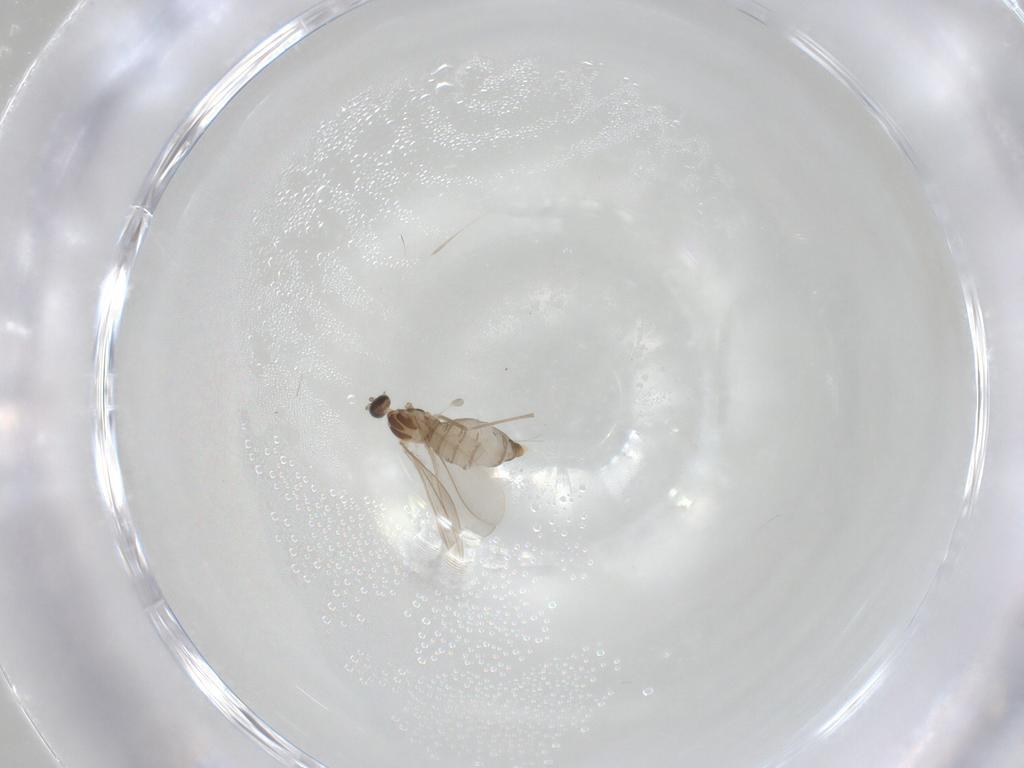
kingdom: Animalia
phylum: Arthropoda
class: Insecta
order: Diptera
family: Cecidomyiidae
